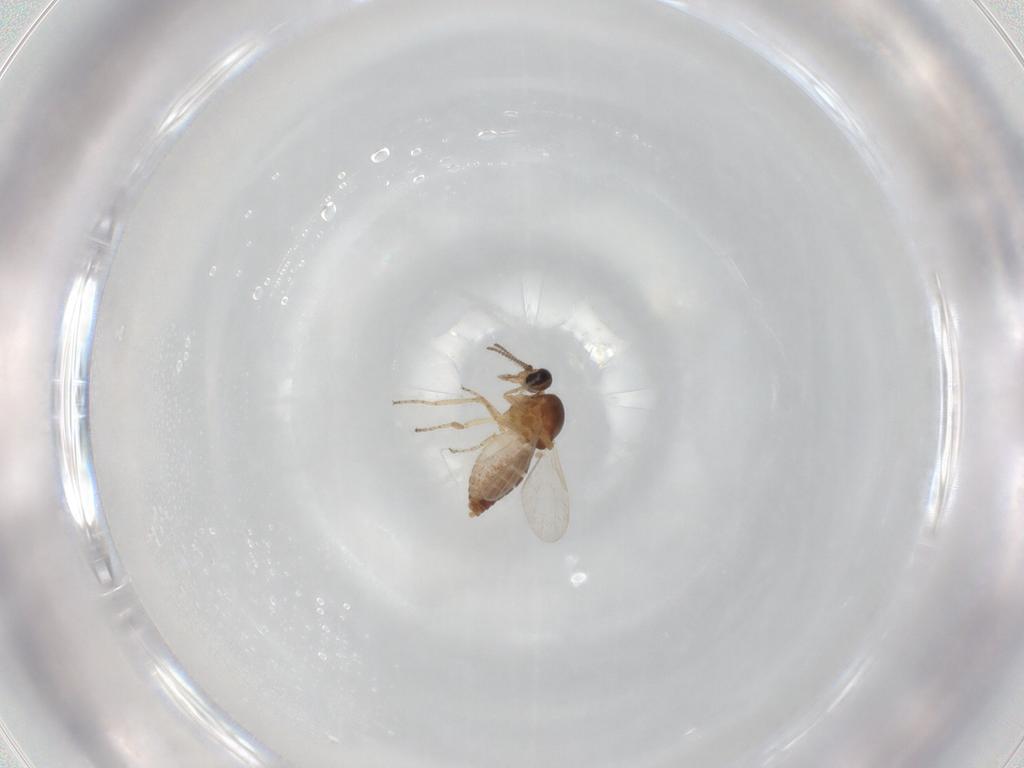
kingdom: Animalia
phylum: Arthropoda
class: Insecta
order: Diptera
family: Ceratopogonidae
